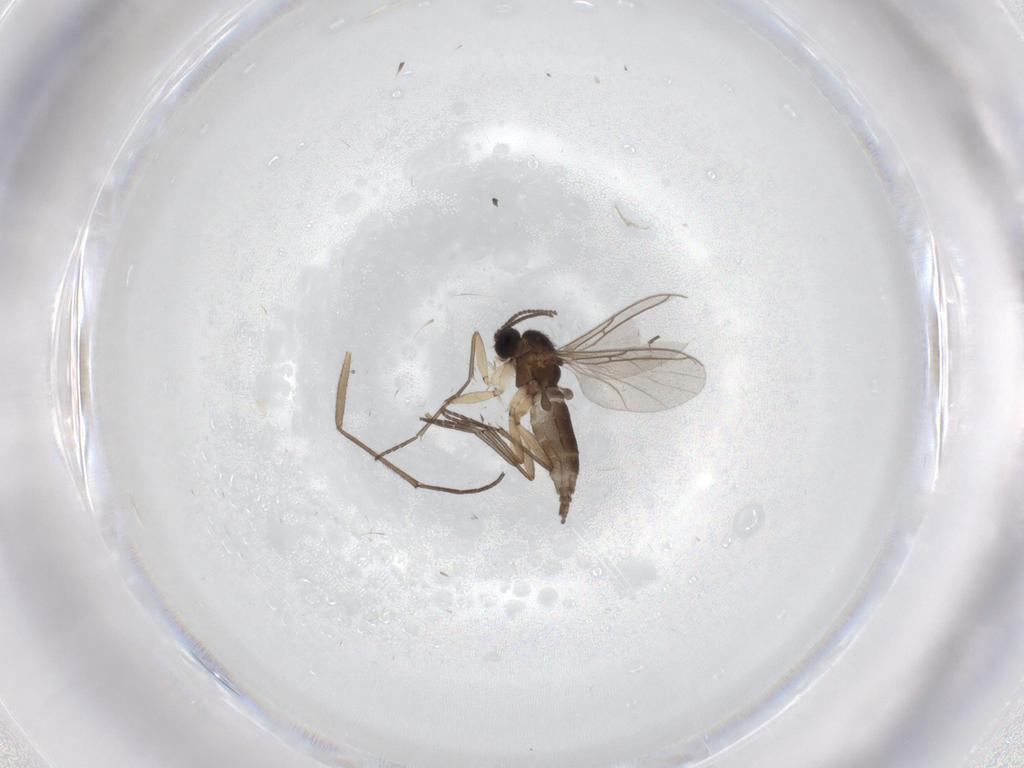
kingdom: Animalia
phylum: Arthropoda
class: Insecta
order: Diptera
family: Sciaridae
